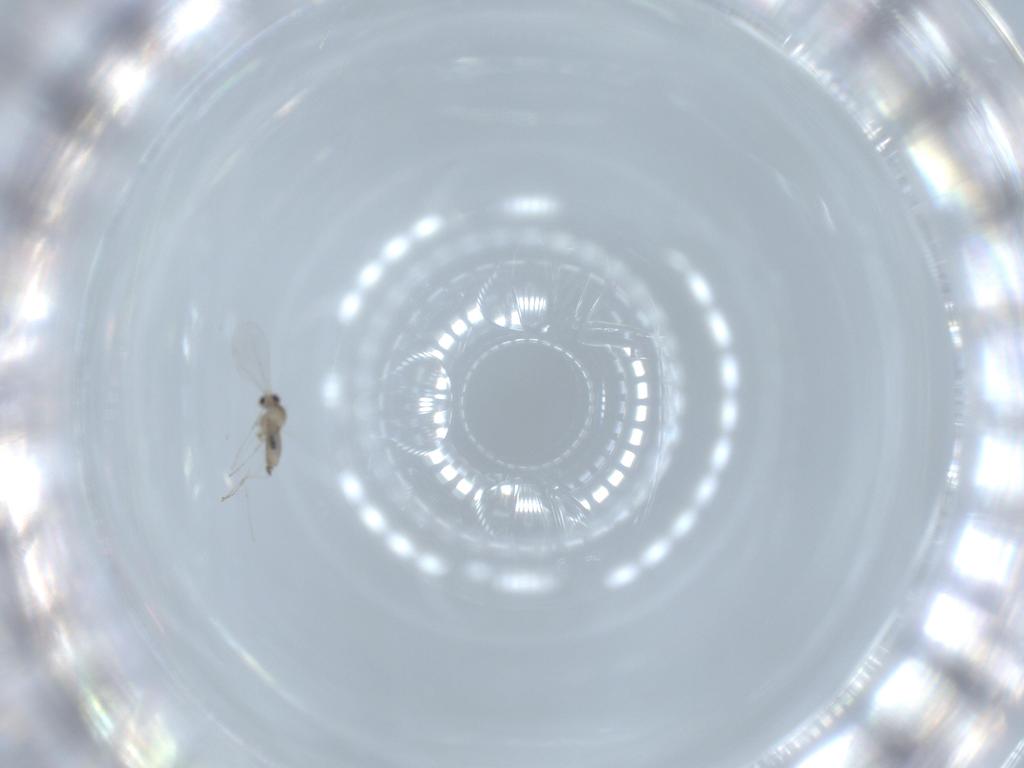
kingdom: Animalia
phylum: Arthropoda
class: Insecta
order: Diptera
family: Cecidomyiidae
